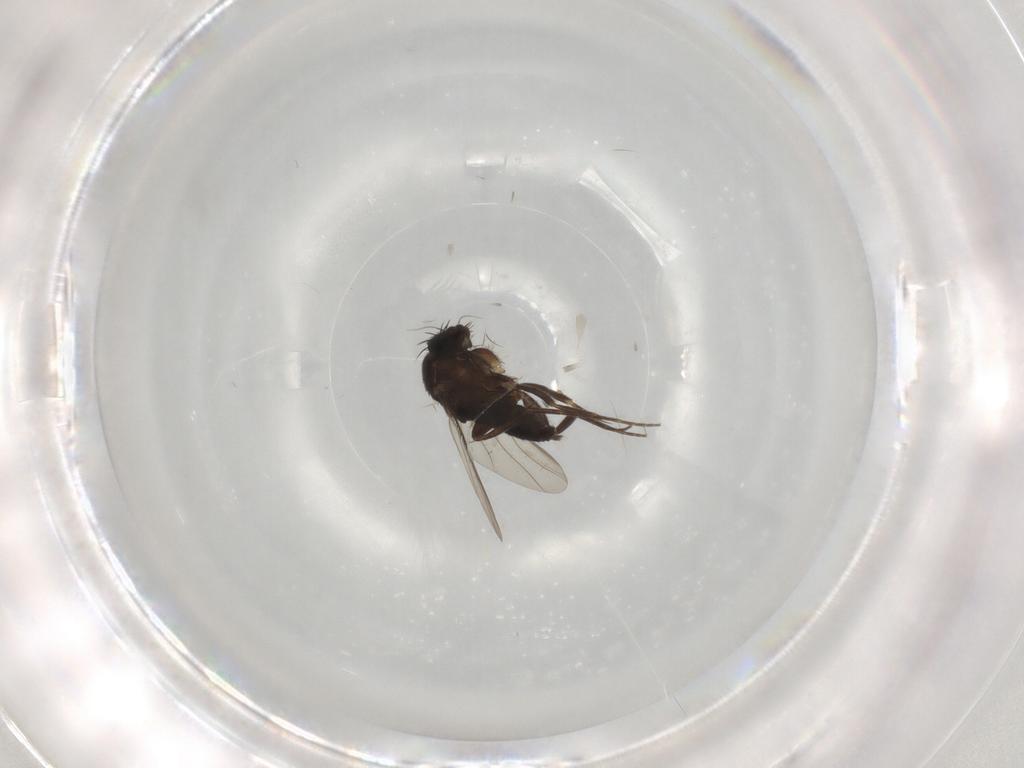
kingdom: Animalia
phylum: Arthropoda
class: Insecta
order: Diptera
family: Phoridae
